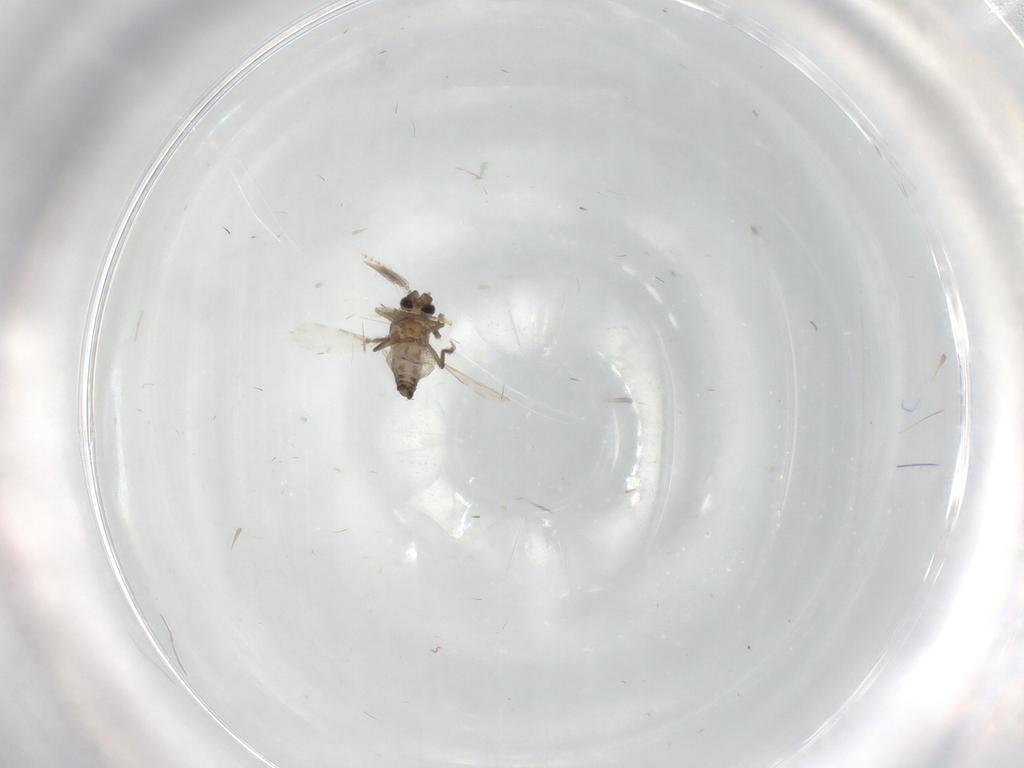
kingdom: Animalia
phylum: Arthropoda
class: Insecta
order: Diptera
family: Ceratopogonidae
